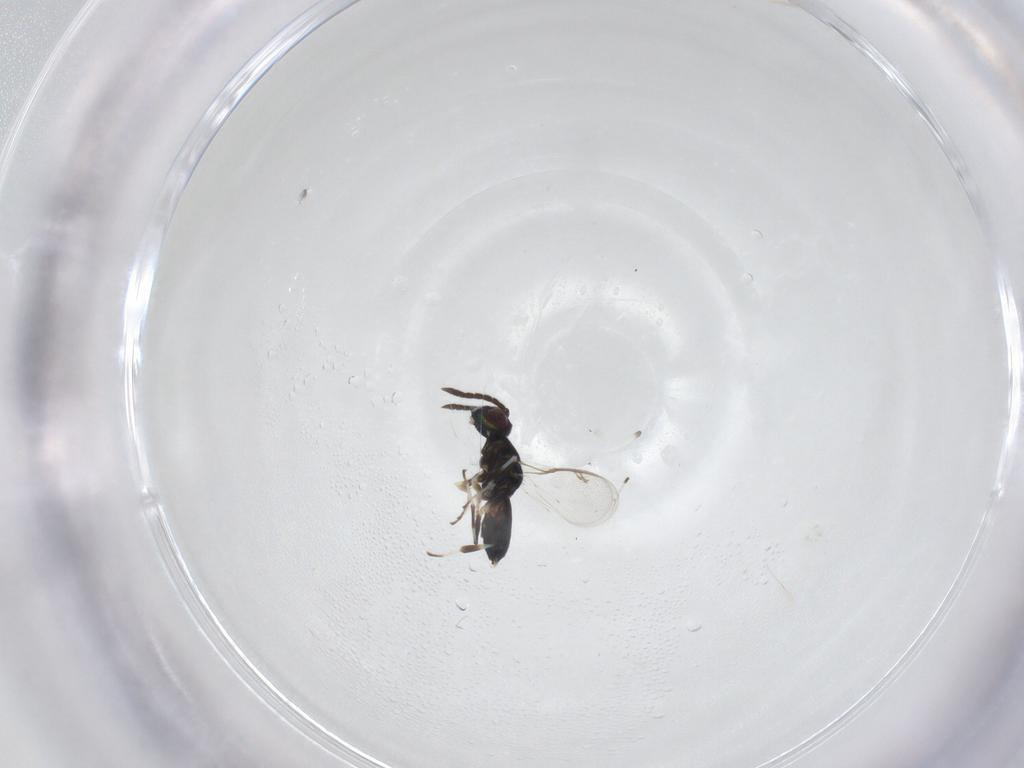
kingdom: Animalia
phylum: Arthropoda
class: Insecta
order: Hymenoptera
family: Eupelmidae
